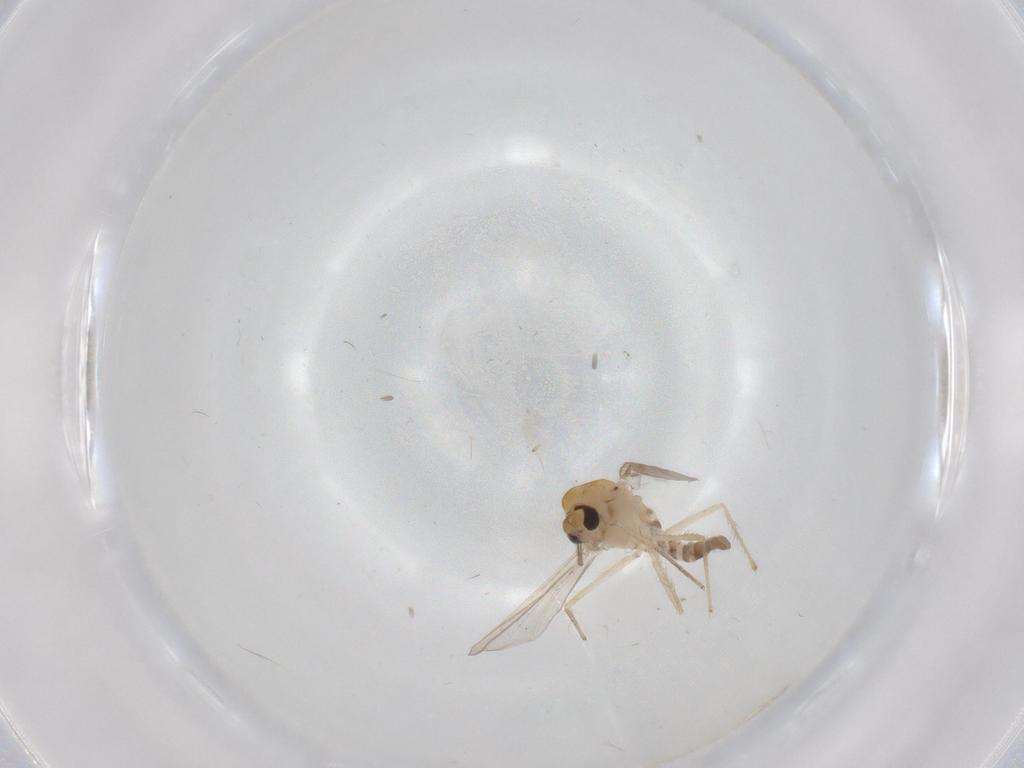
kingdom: Animalia
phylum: Arthropoda
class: Insecta
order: Diptera
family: Chironomidae
